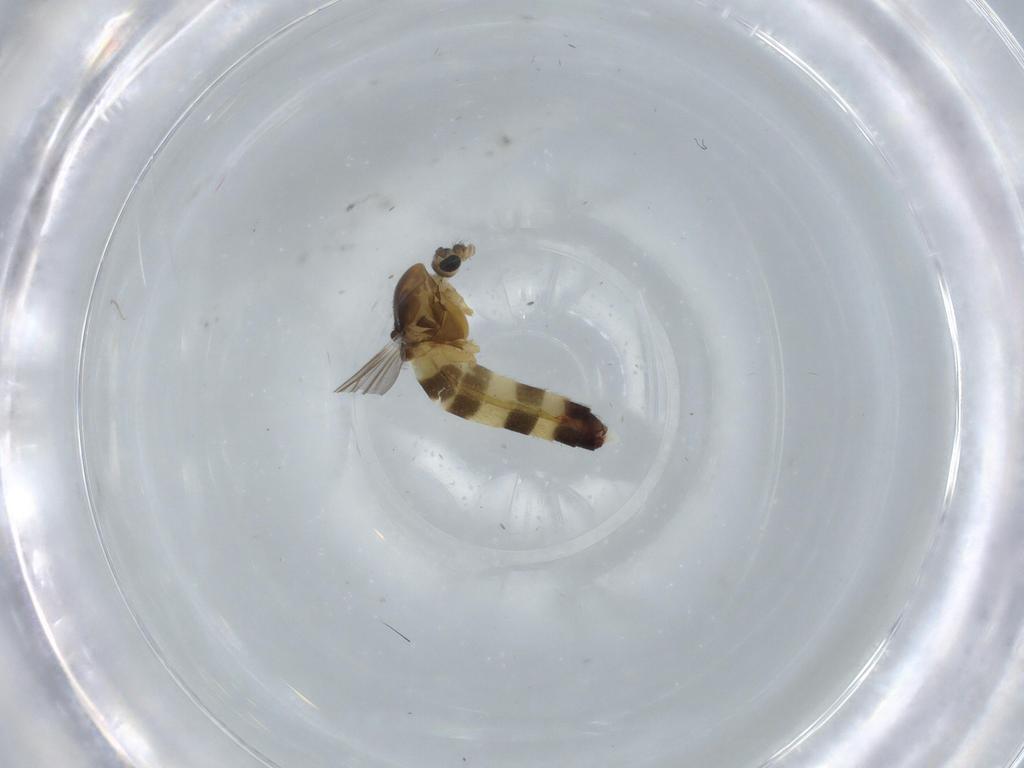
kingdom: Animalia
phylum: Arthropoda
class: Insecta
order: Diptera
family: Chironomidae
